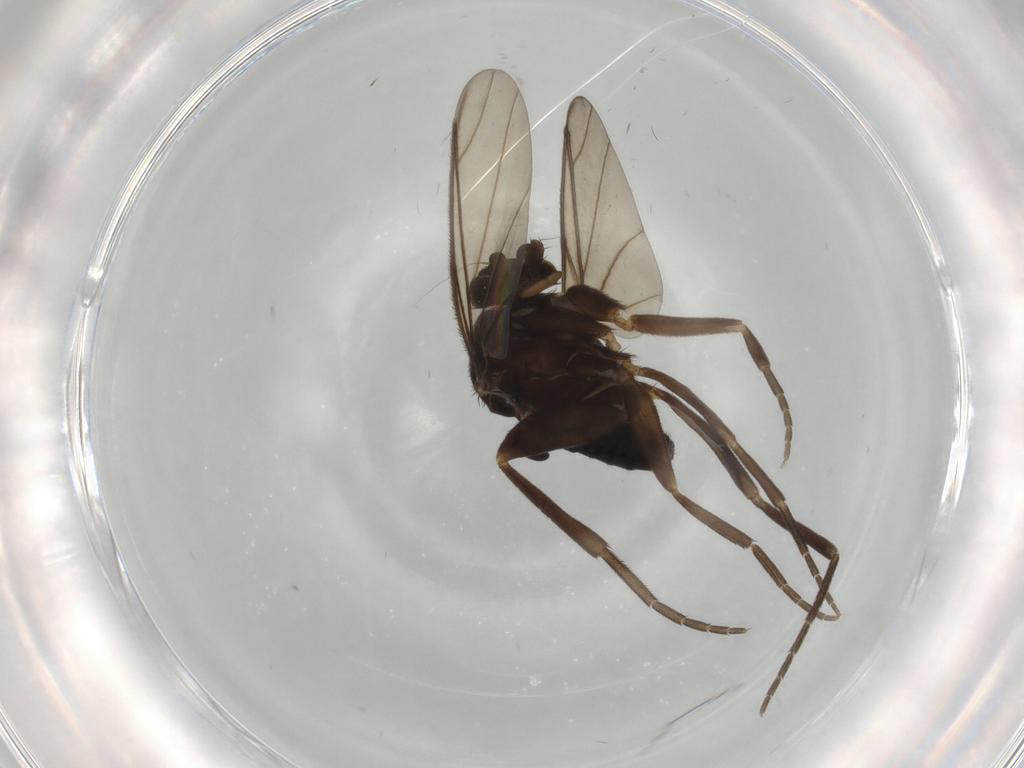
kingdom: Animalia
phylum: Arthropoda
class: Insecta
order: Diptera
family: Phoridae
